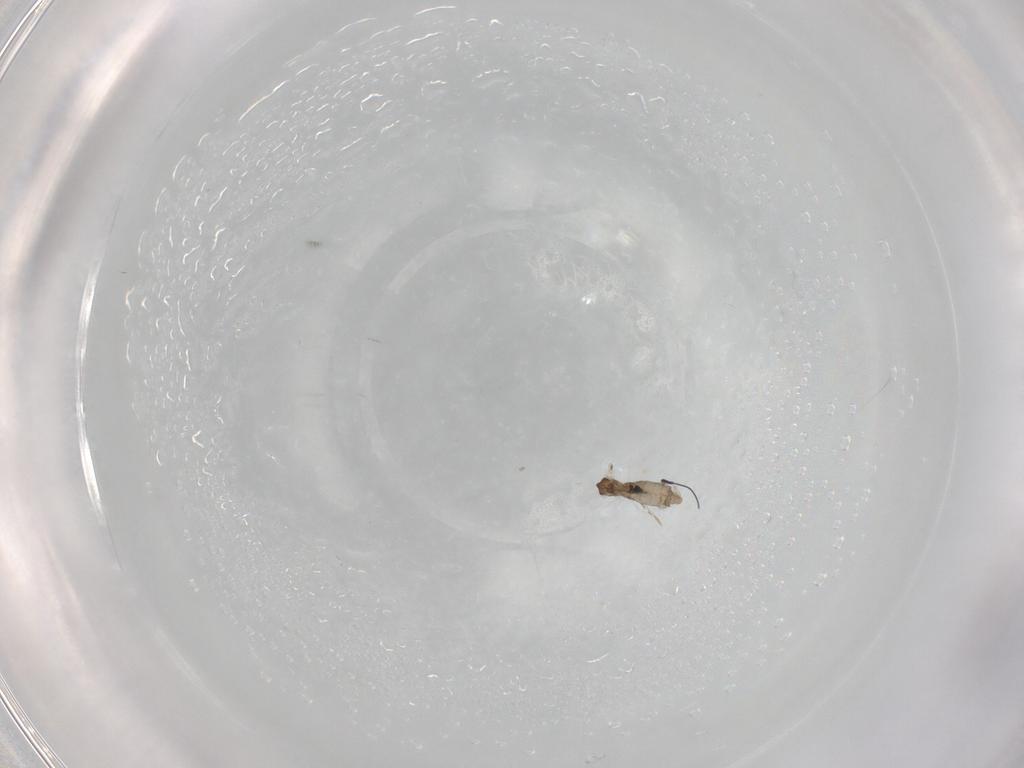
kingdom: Animalia
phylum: Arthropoda
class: Insecta
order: Diptera
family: Cecidomyiidae
